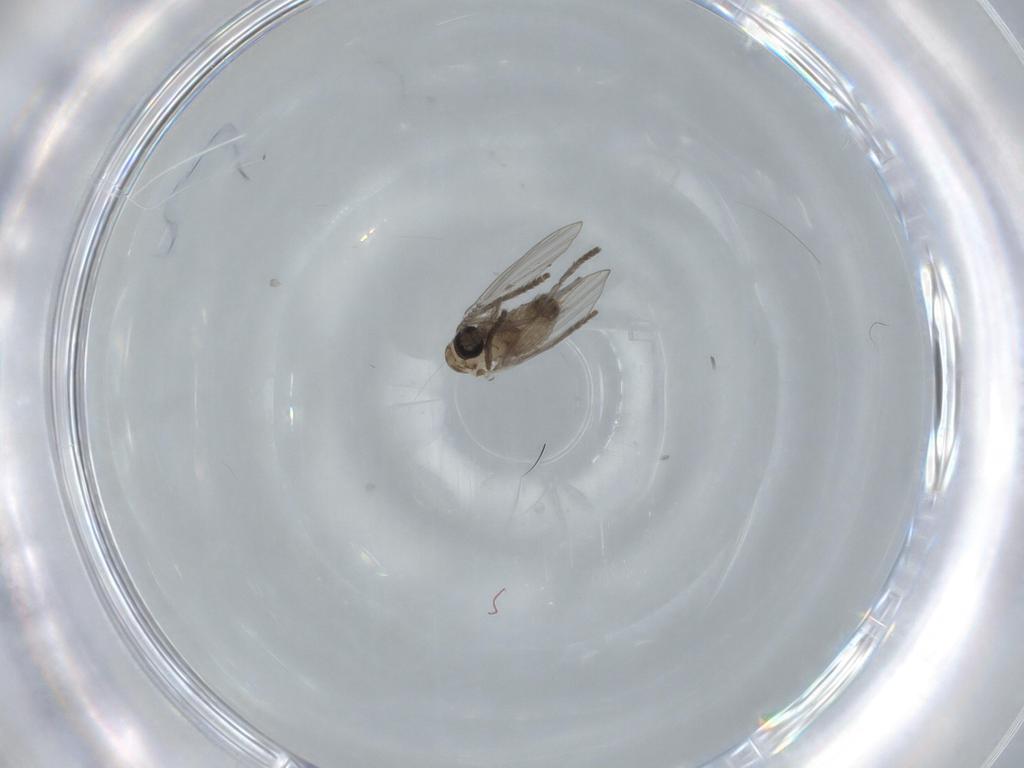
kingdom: Animalia
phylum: Arthropoda
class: Insecta
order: Diptera
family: Psychodidae
